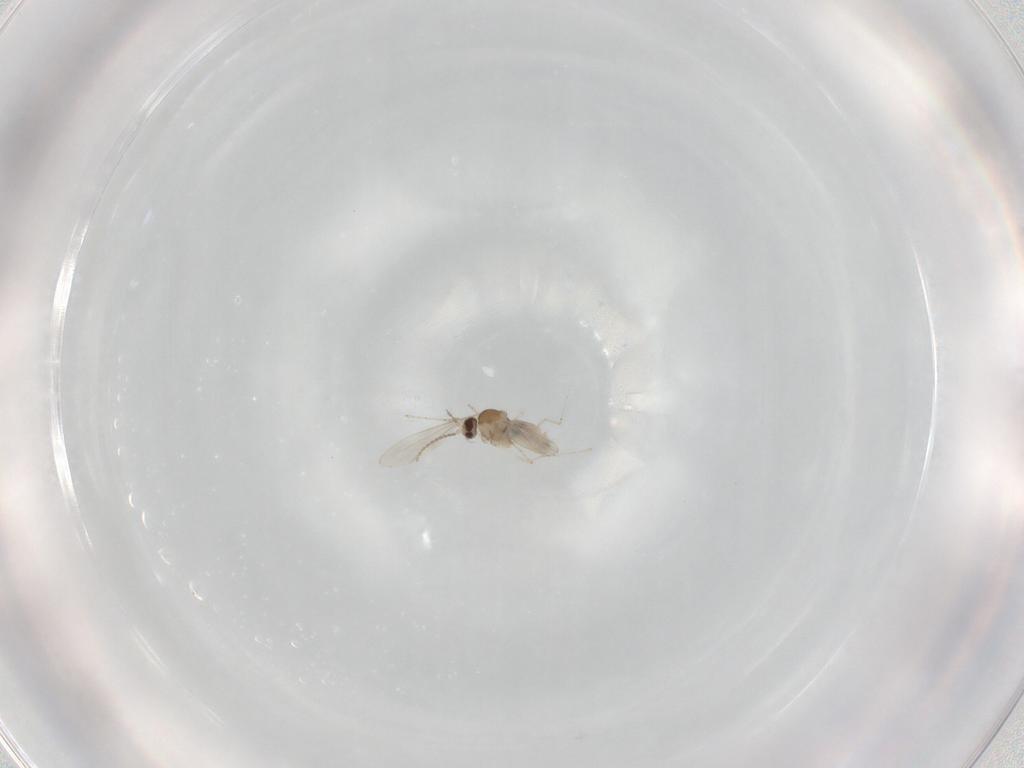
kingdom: Animalia
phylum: Arthropoda
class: Insecta
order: Diptera
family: Cecidomyiidae
